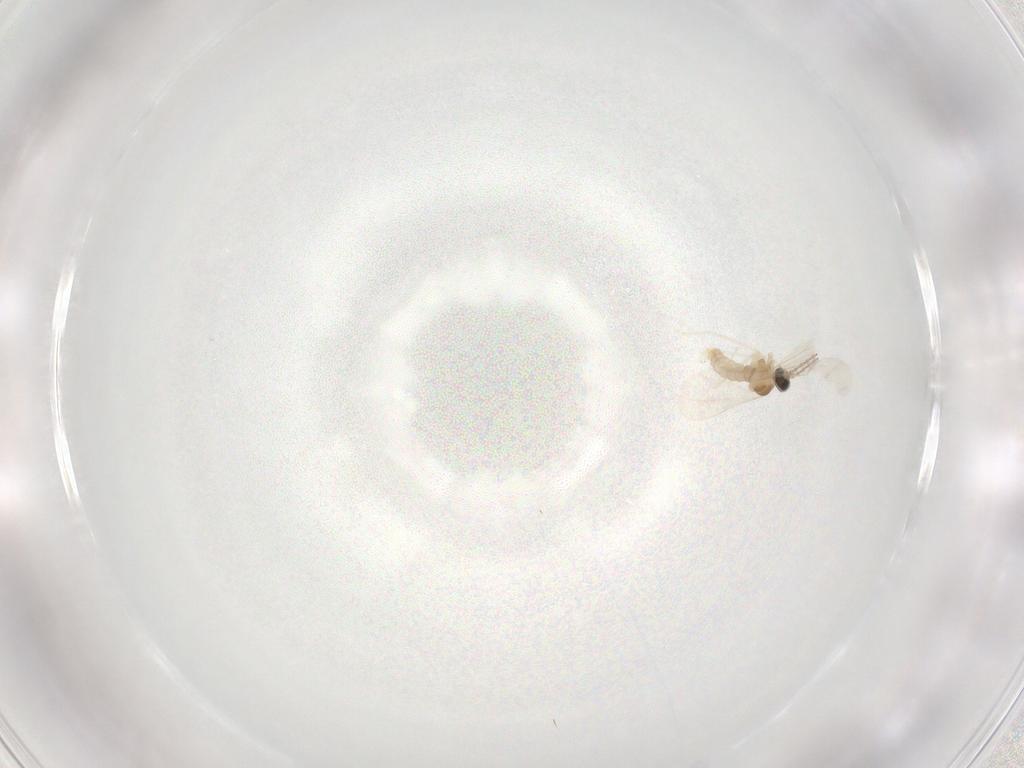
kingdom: Animalia
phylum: Arthropoda
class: Insecta
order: Diptera
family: Cecidomyiidae
